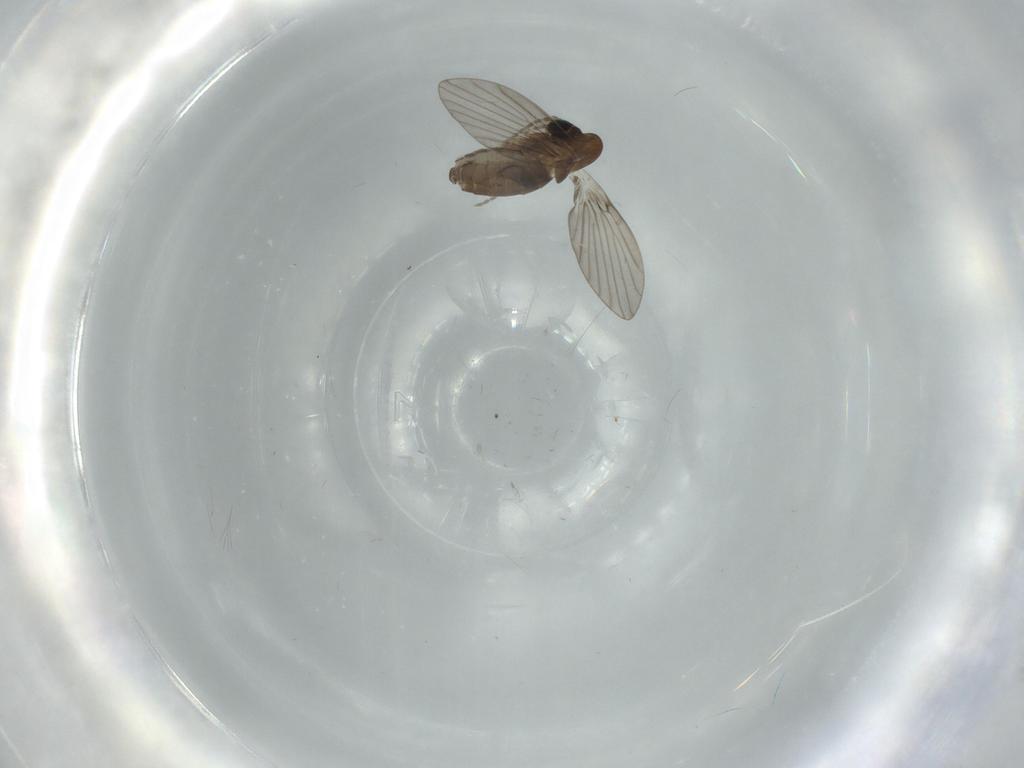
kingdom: Animalia
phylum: Arthropoda
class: Insecta
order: Diptera
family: Psychodidae
